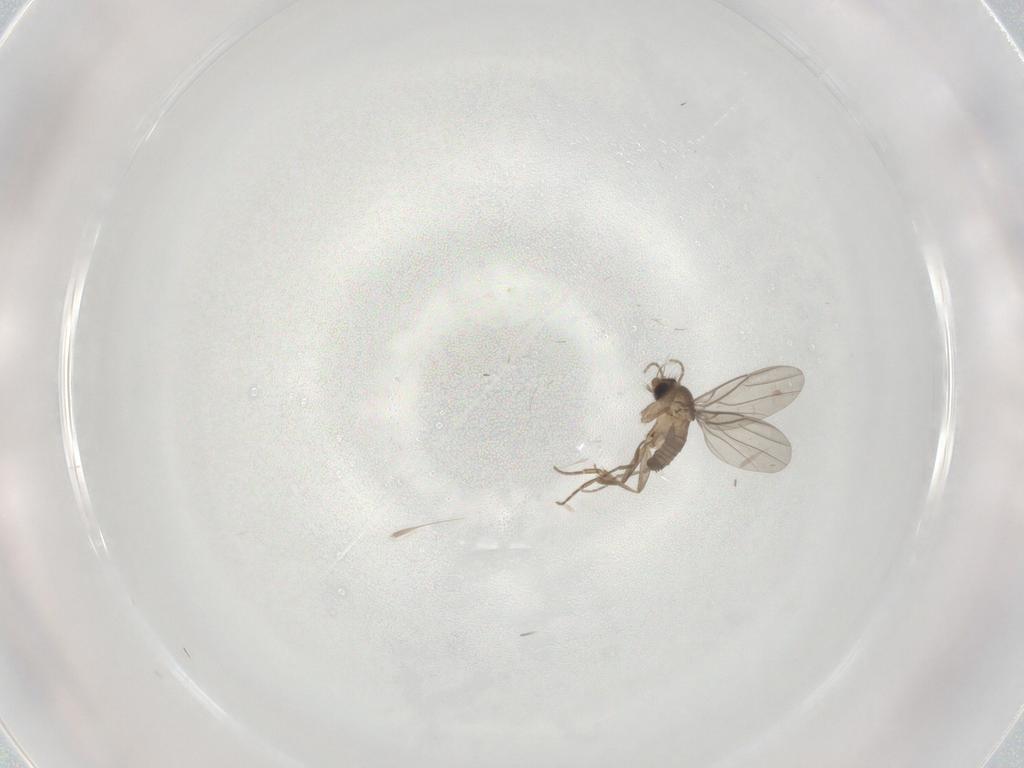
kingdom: Animalia
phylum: Arthropoda
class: Insecta
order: Diptera
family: Phoridae
